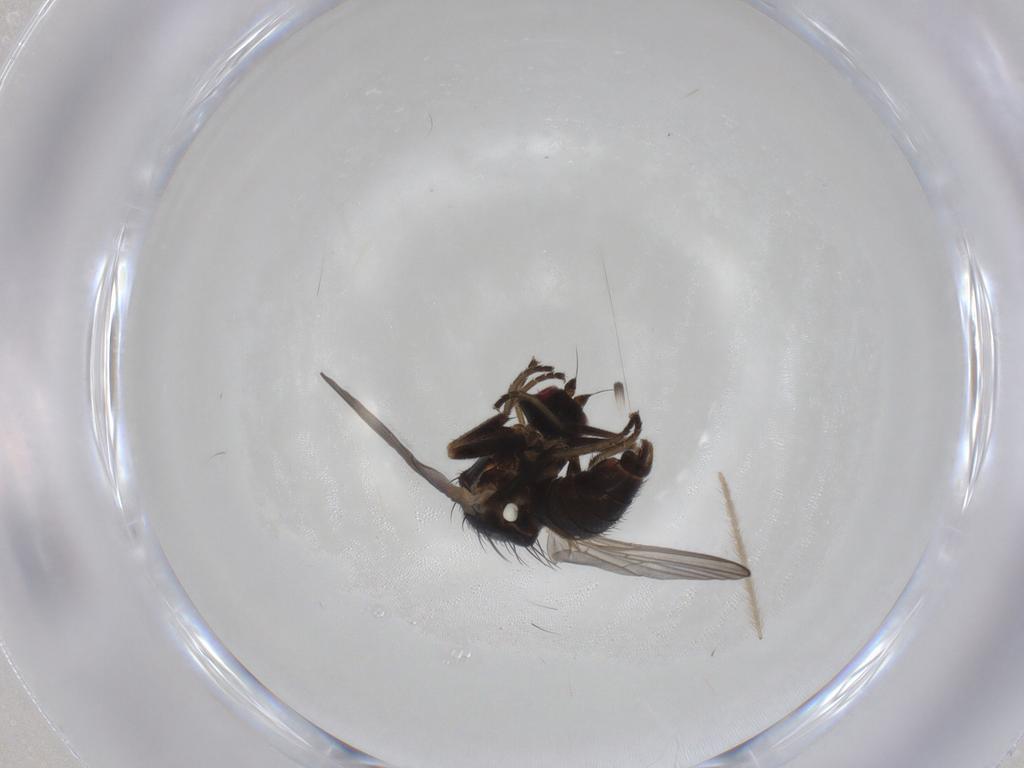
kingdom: Animalia
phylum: Arthropoda
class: Insecta
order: Diptera
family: Agromyzidae
